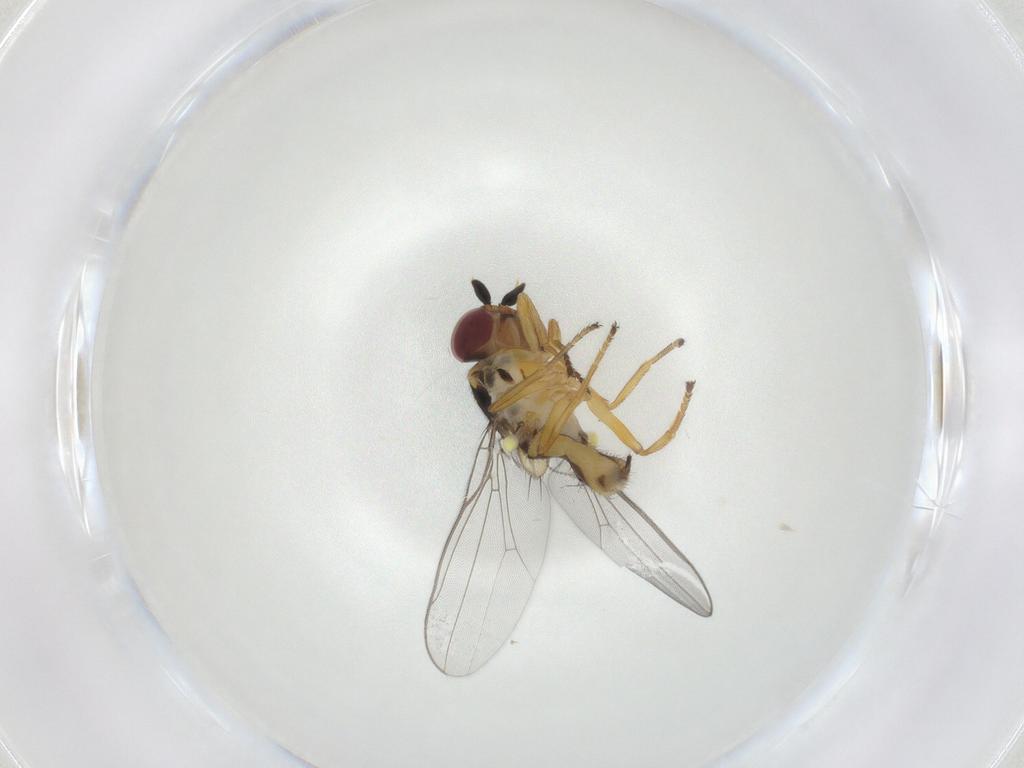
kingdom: Animalia
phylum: Arthropoda
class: Insecta
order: Diptera
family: Chloropidae
